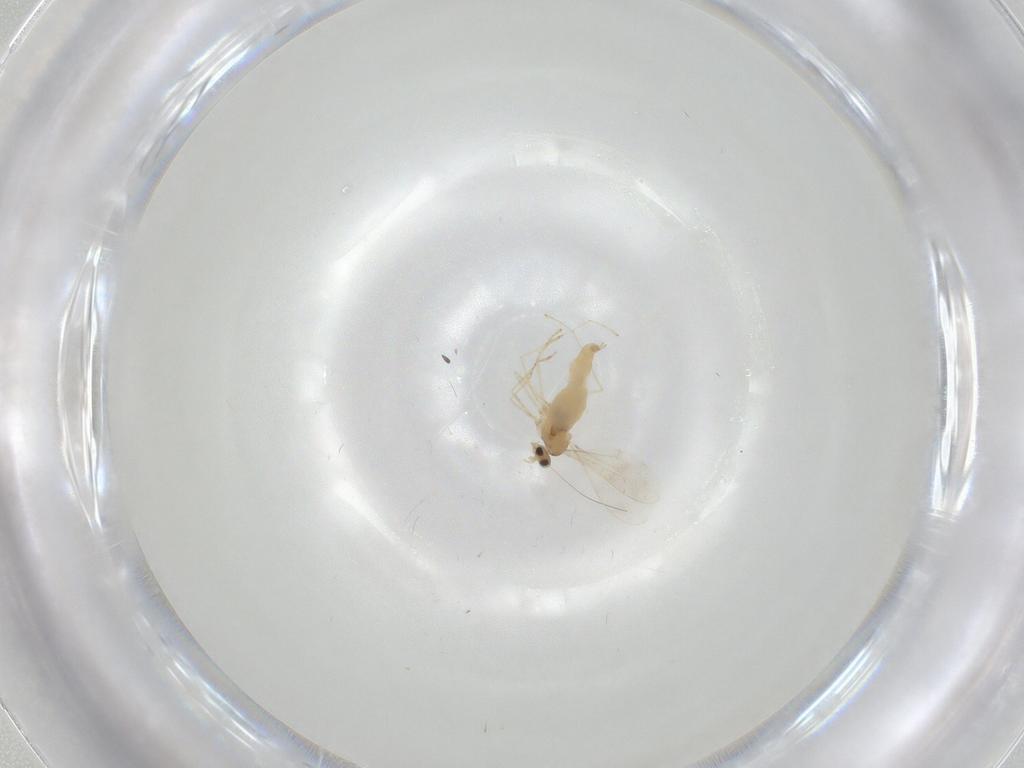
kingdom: Animalia
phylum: Arthropoda
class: Insecta
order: Diptera
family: Cecidomyiidae
